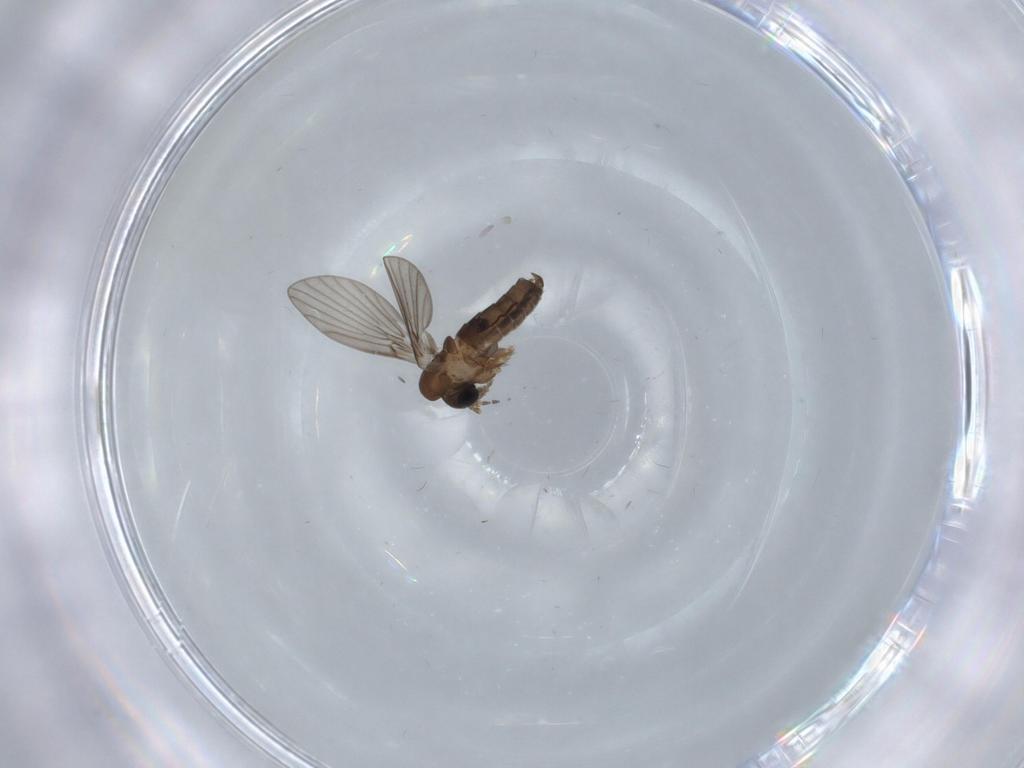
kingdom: Animalia
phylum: Arthropoda
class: Insecta
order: Diptera
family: Psychodidae
